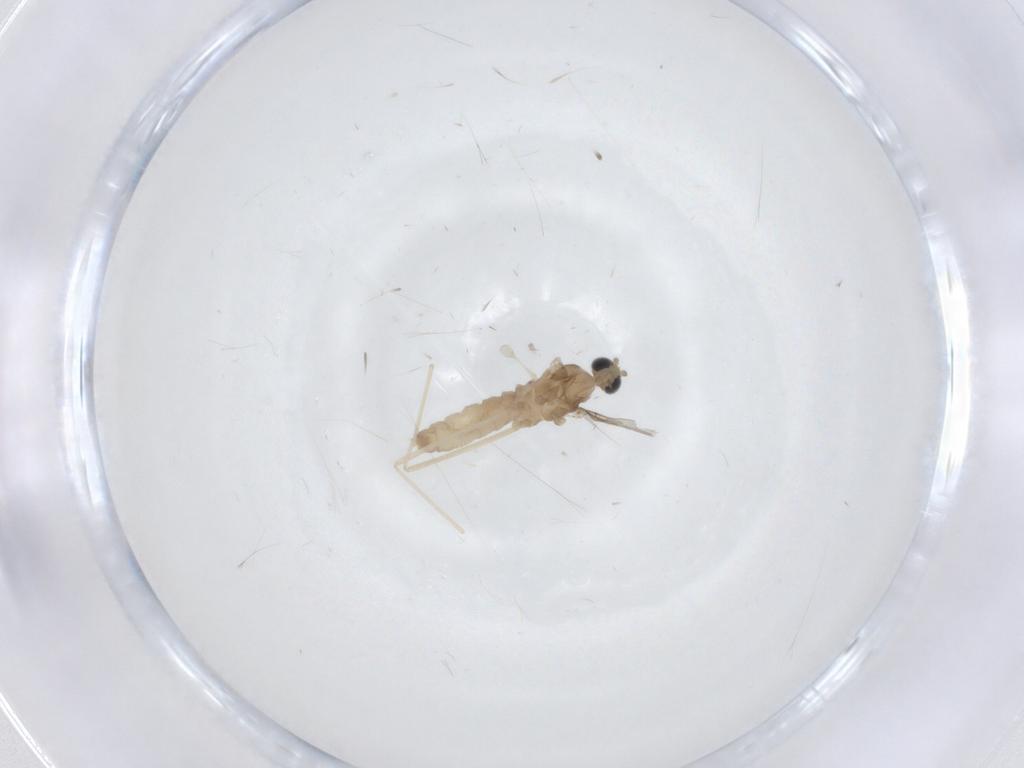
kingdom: Animalia
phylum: Arthropoda
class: Insecta
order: Diptera
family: Cecidomyiidae
